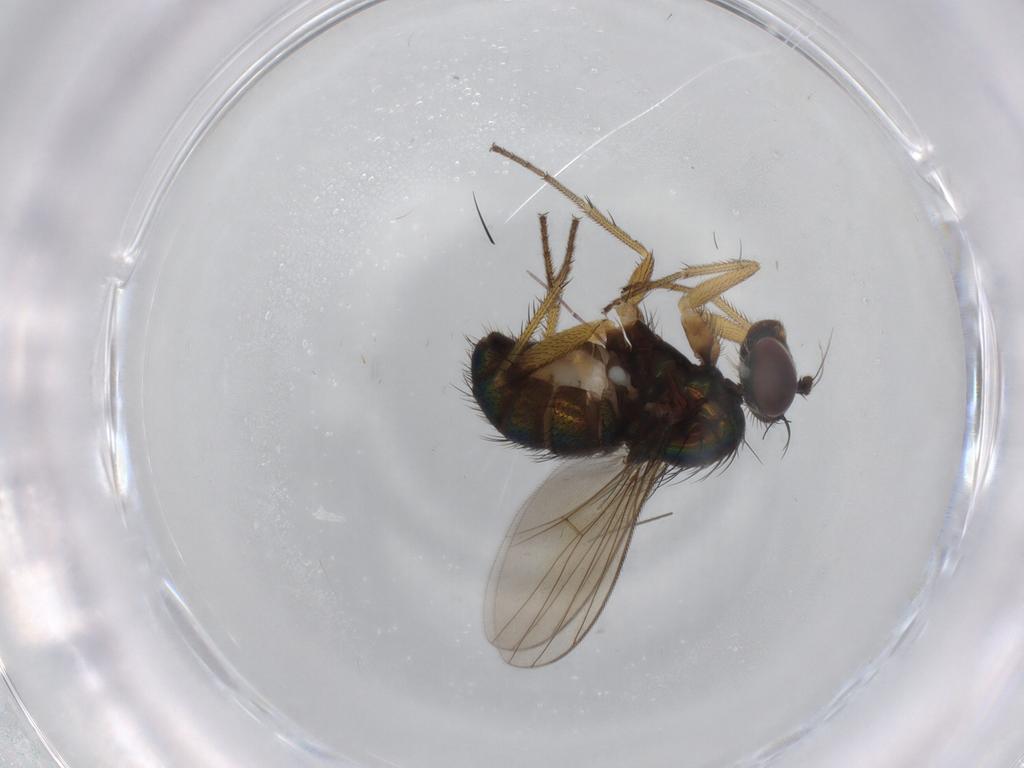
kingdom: Animalia
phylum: Arthropoda
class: Insecta
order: Diptera
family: Dolichopodidae
